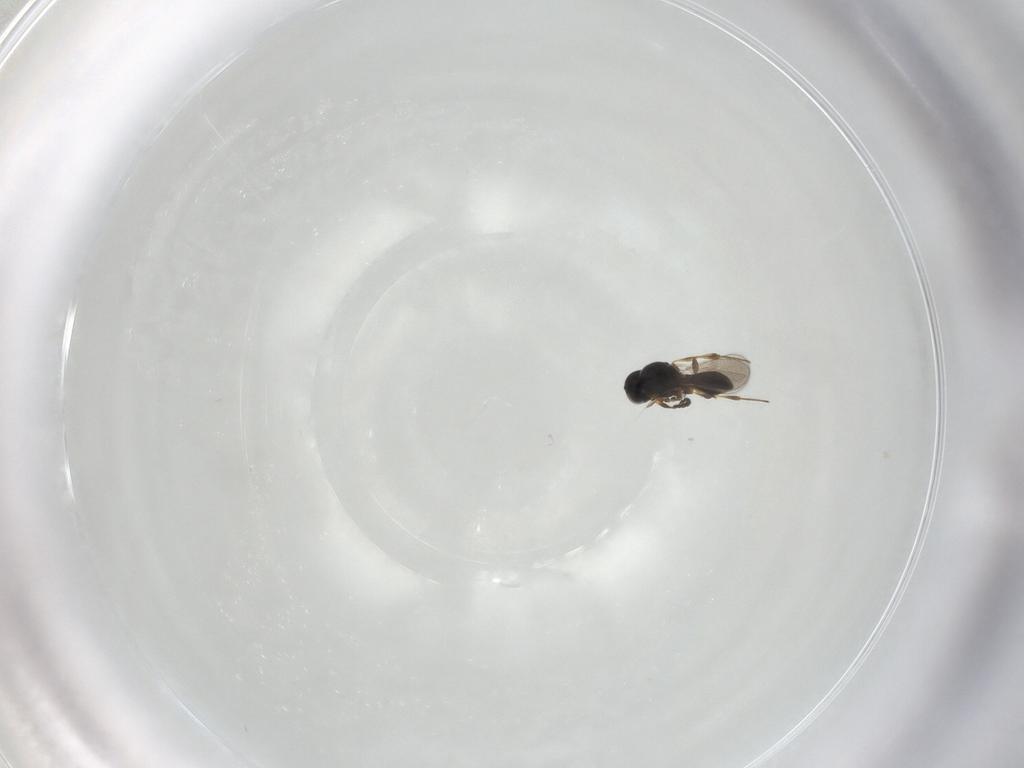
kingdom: Animalia
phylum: Arthropoda
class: Insecta
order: Hymenoptera
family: Platygastridae
